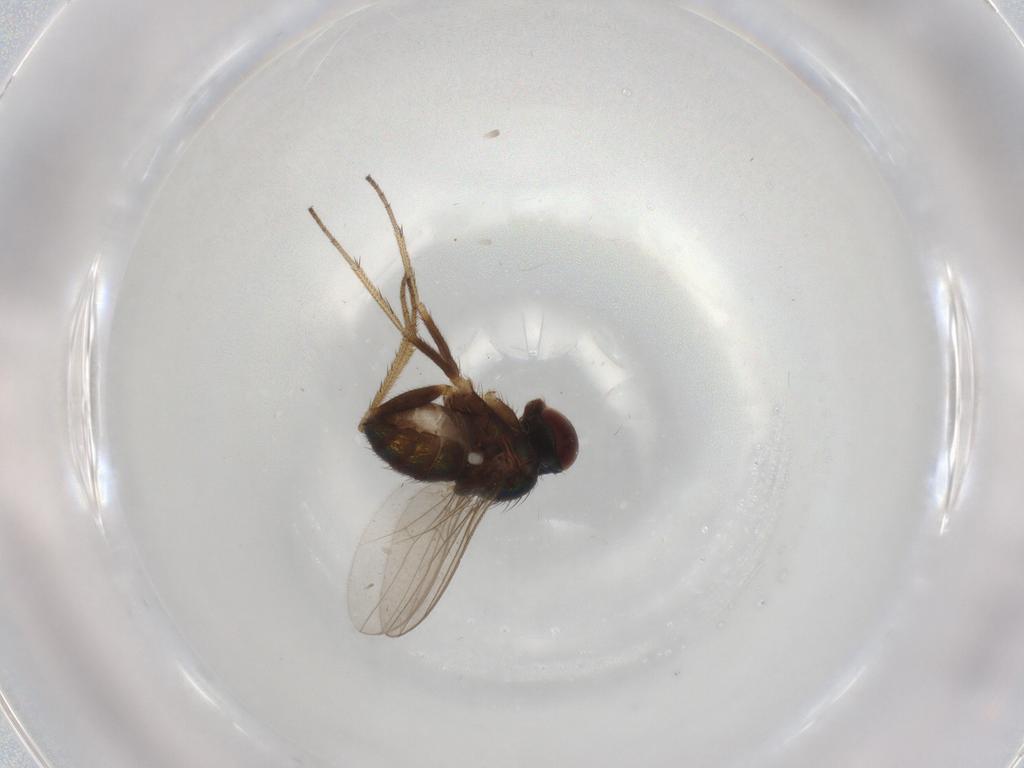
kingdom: Animalia
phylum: Arthropoda
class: Insecta
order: Diptera
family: Dolichopodidae
